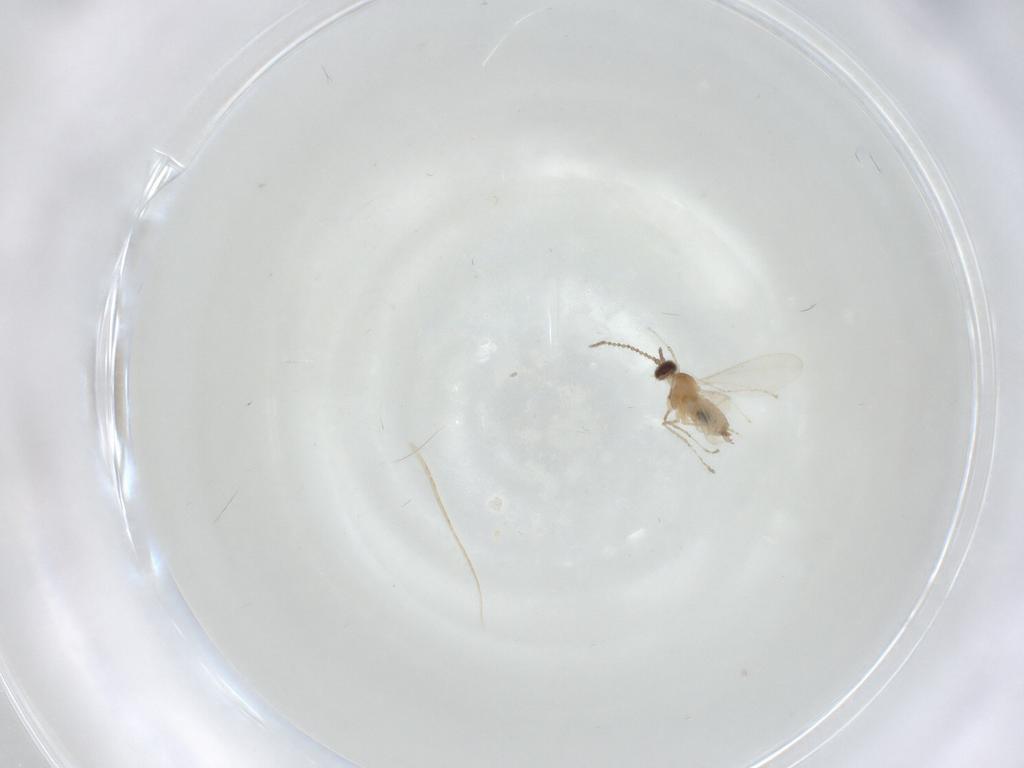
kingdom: Animalia
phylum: Arthropoda
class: Insecta
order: Diptera
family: Cecidomyiidae
